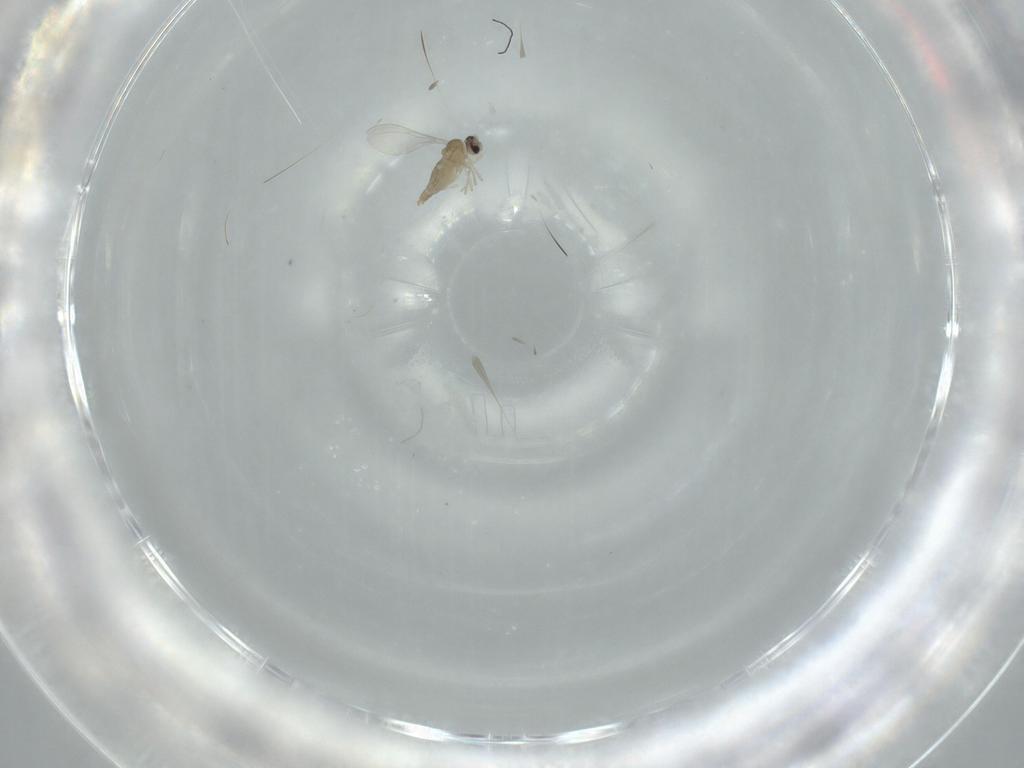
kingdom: Animalia
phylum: Arthropoda
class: Insecta
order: Diptera
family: Cecidomyiidae
